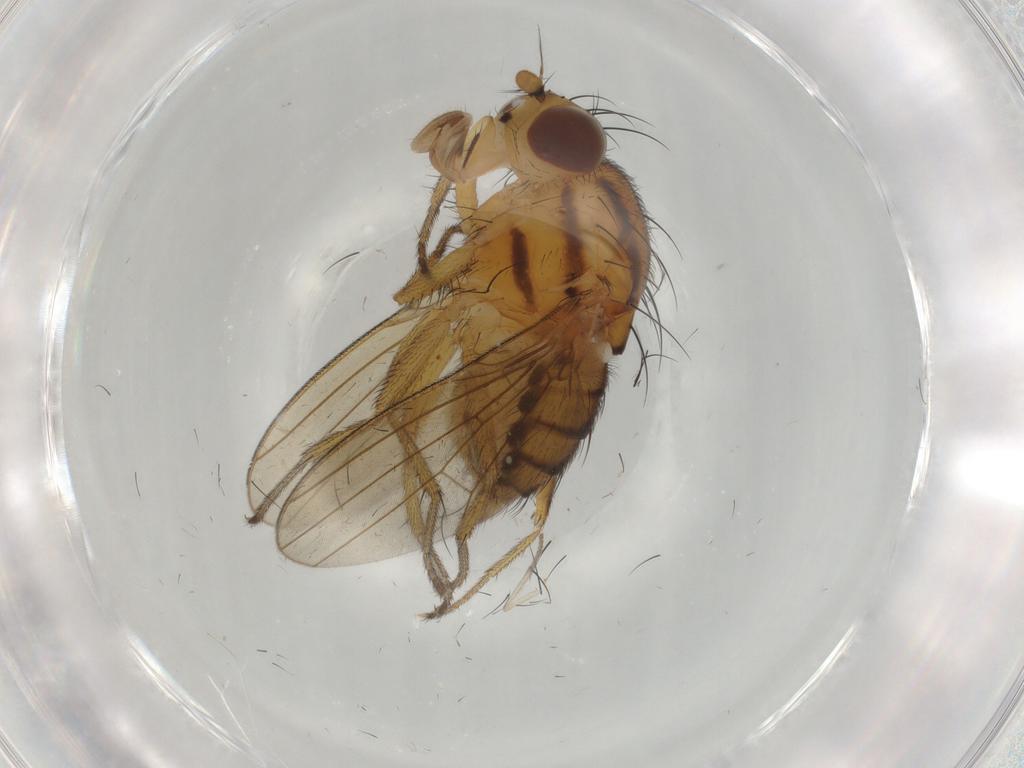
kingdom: Animalia
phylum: Arthropoda
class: Insecta
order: Diptera
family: Dolichopodidae
